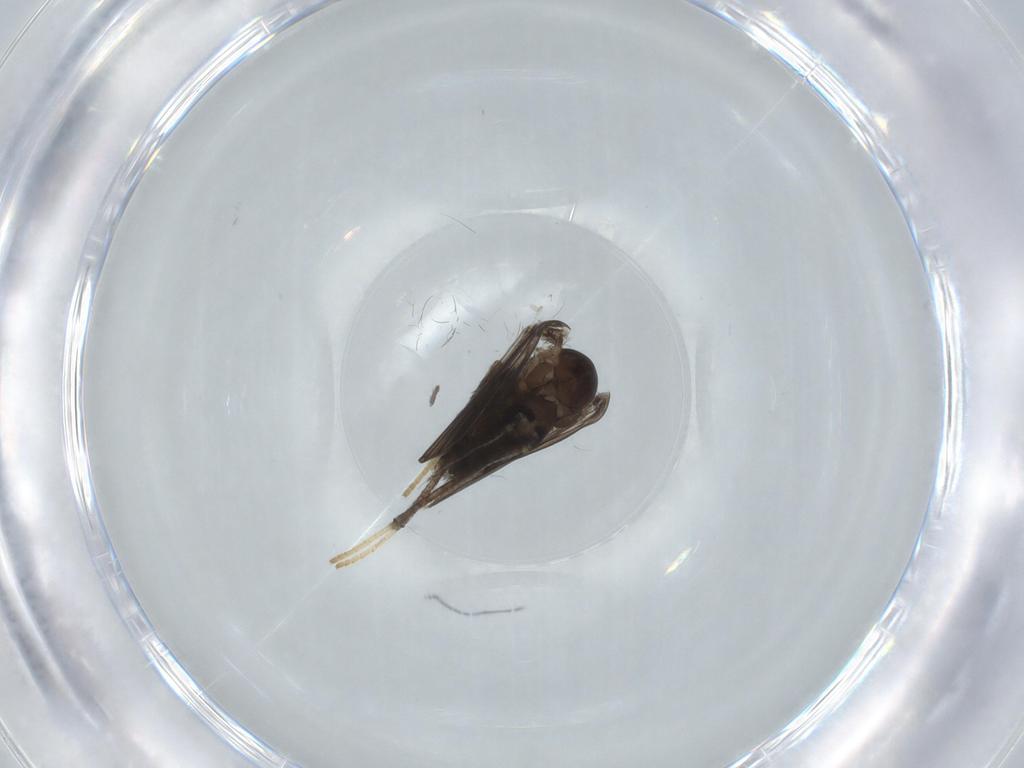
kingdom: Animalia
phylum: Arthropoda
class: Insecta
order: Diptera
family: Psychodidae
